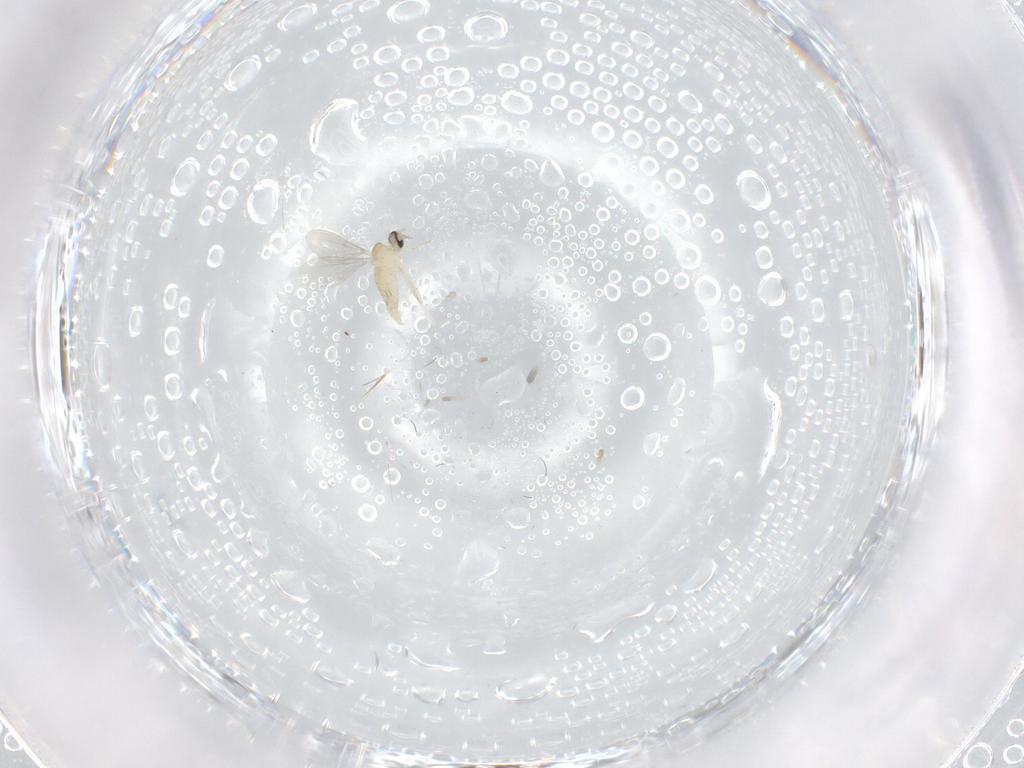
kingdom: Animalia
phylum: Arthropoda
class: Insecta
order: Diptera
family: Cecidomyiidae
